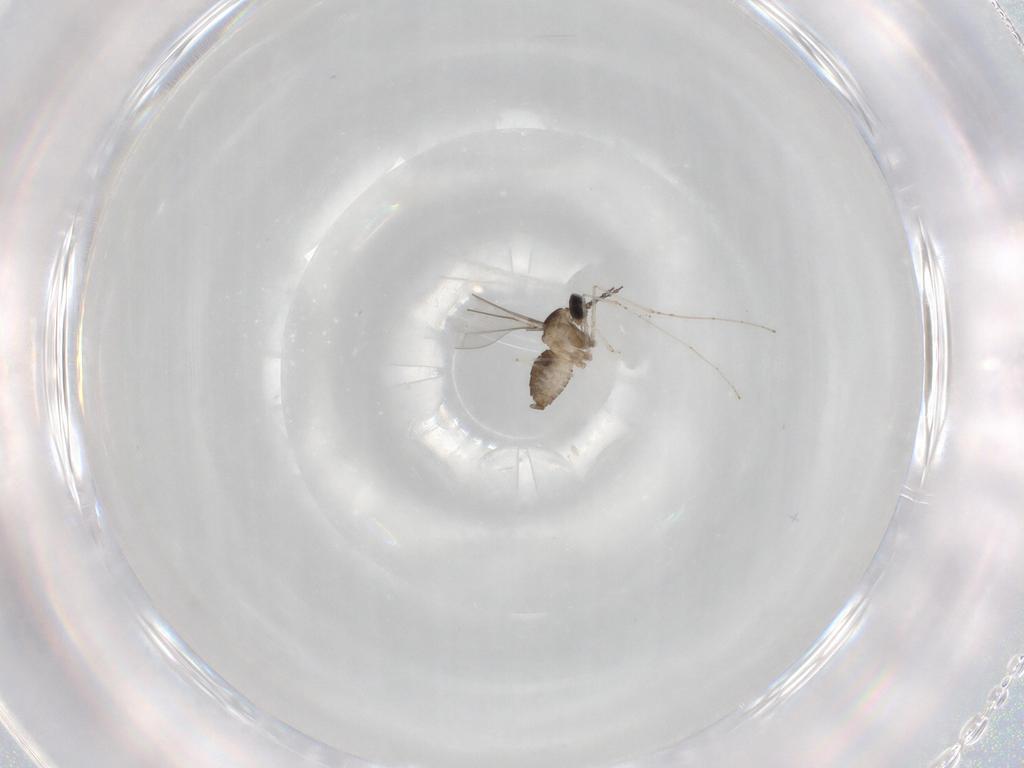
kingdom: Animalia
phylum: Arthropoda
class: Insecta
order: Diptera
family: Cecidomyiidae
